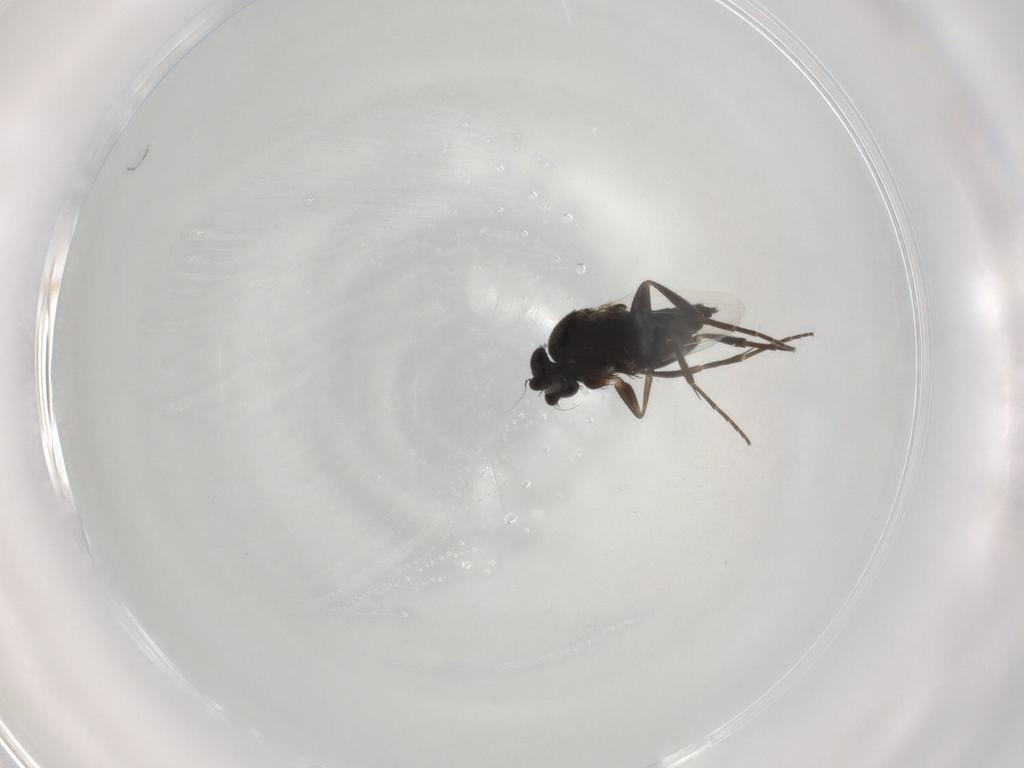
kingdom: Animalia
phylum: Arthropoda
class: Insecta
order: Diptera
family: Phoridae
